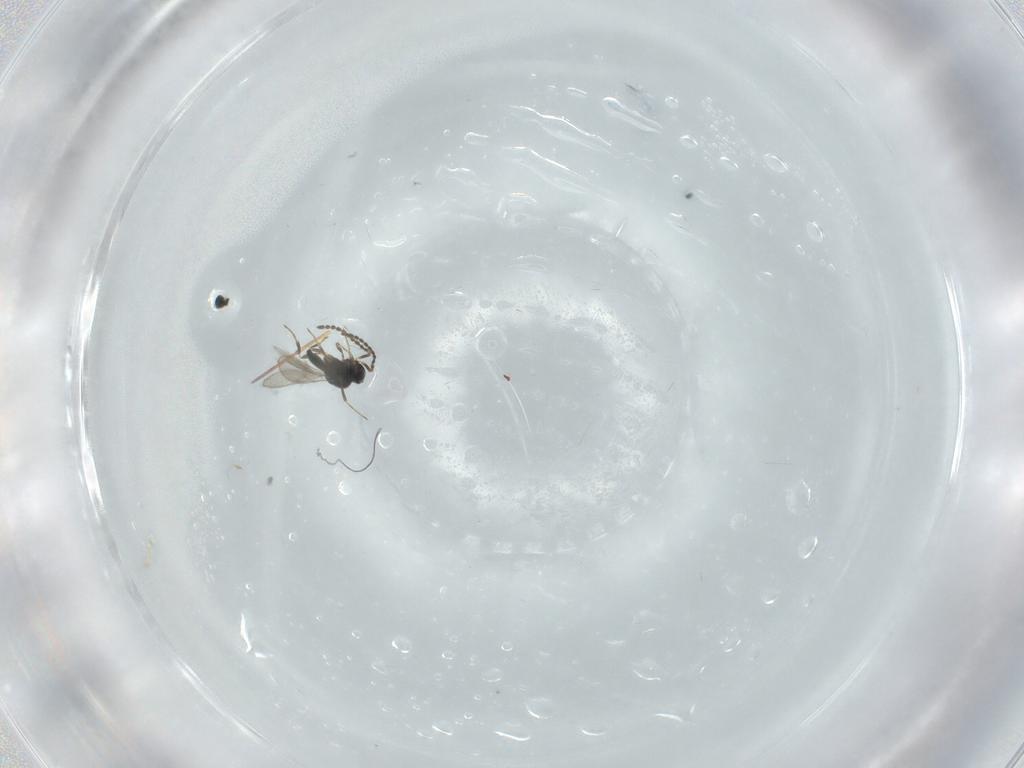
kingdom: Animalia
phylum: Arthropoda
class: Insecta
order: Hymenoptera
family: Scelionidae
